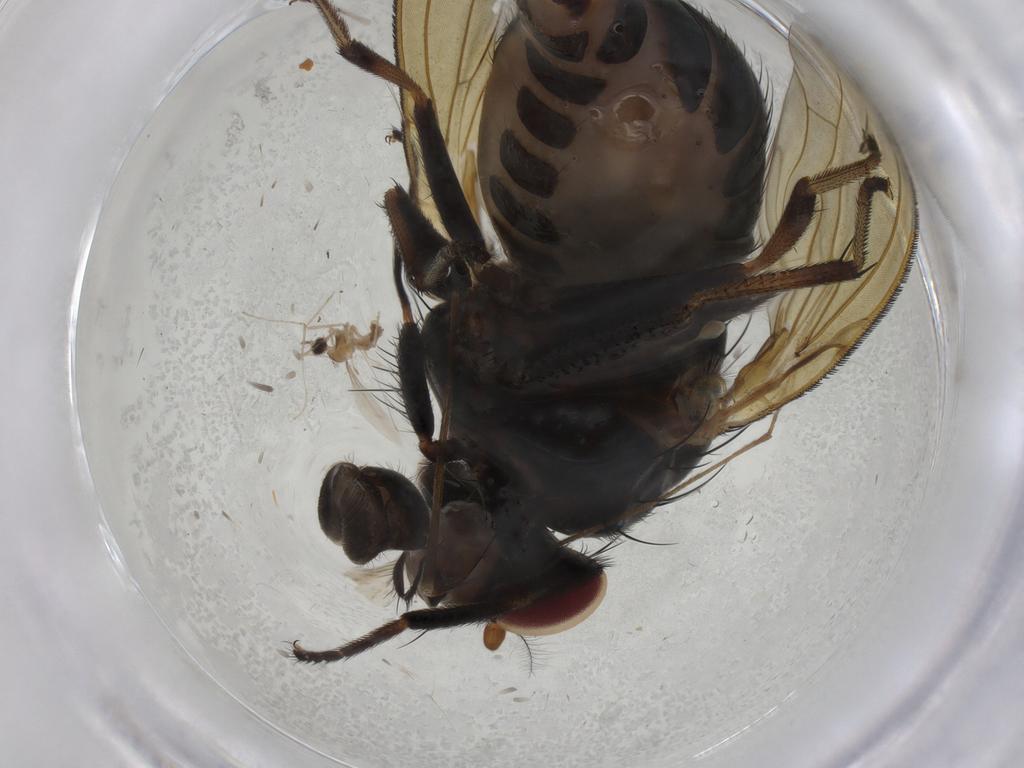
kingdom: Animalia
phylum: Arthropoda
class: Insecta
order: Diptera
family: Lauxaniidae
